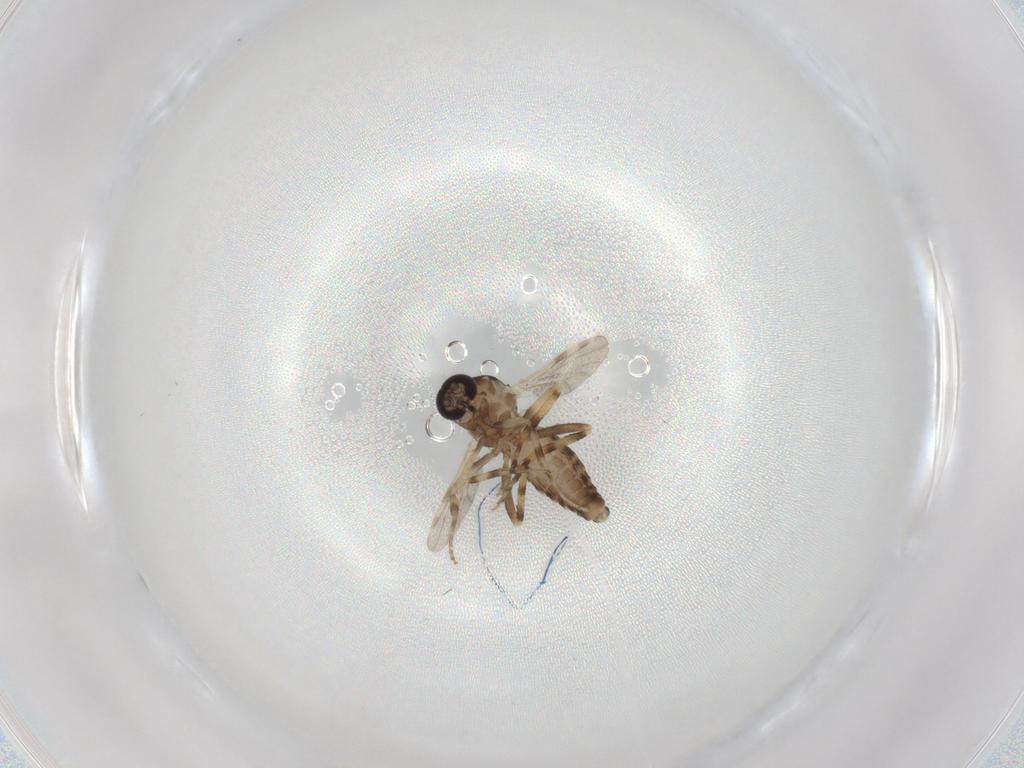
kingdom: Animalia
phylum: Arthropoda
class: Insecta
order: Diptera
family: Ceratopogonidae
